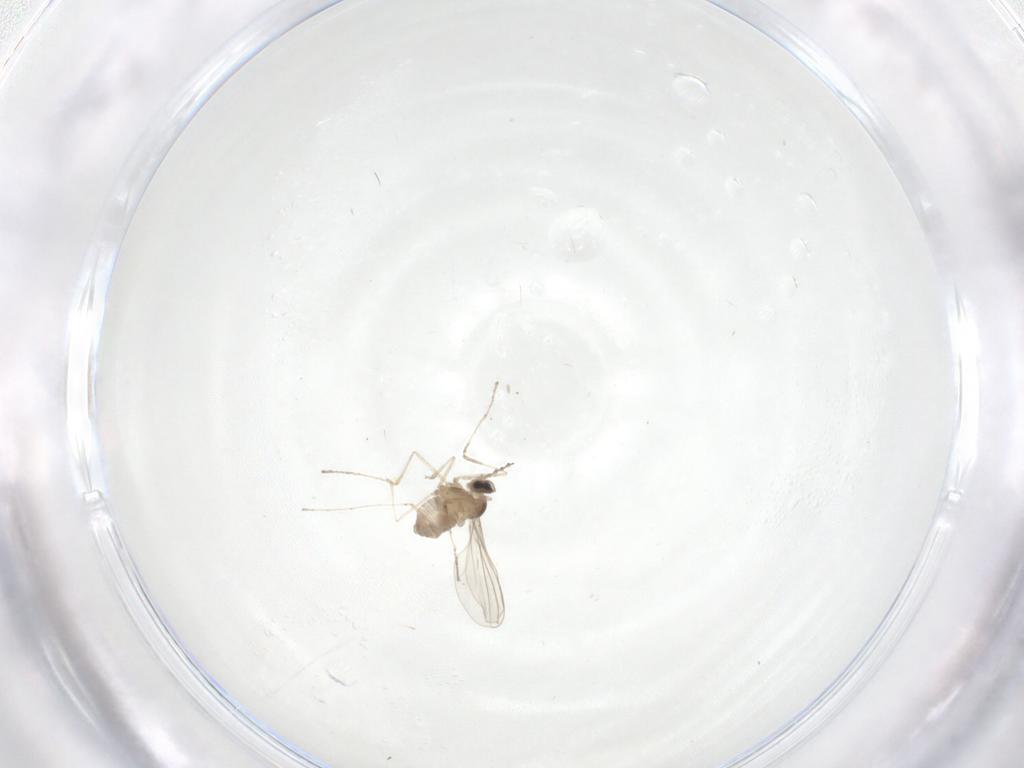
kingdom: Animalia
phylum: Arthropoda
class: Insecta
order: Diptera
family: Cecidomyiidae
